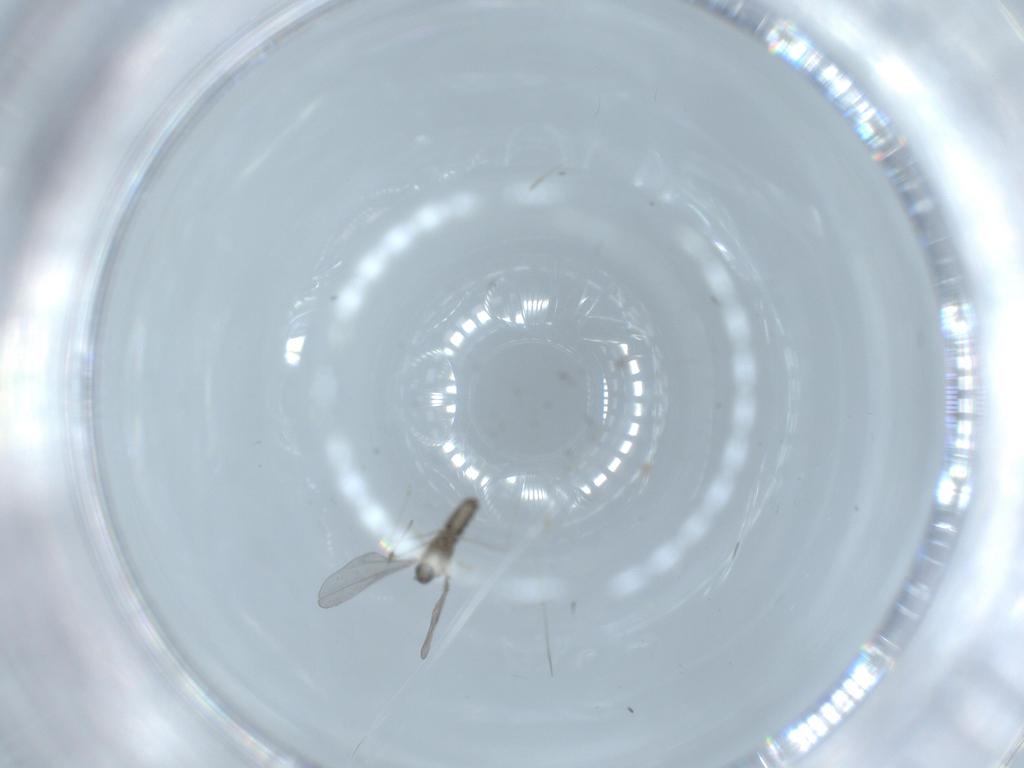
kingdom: Animalia
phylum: Arthropoda
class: Insecta
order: Diptera
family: Cecidomyiidae
